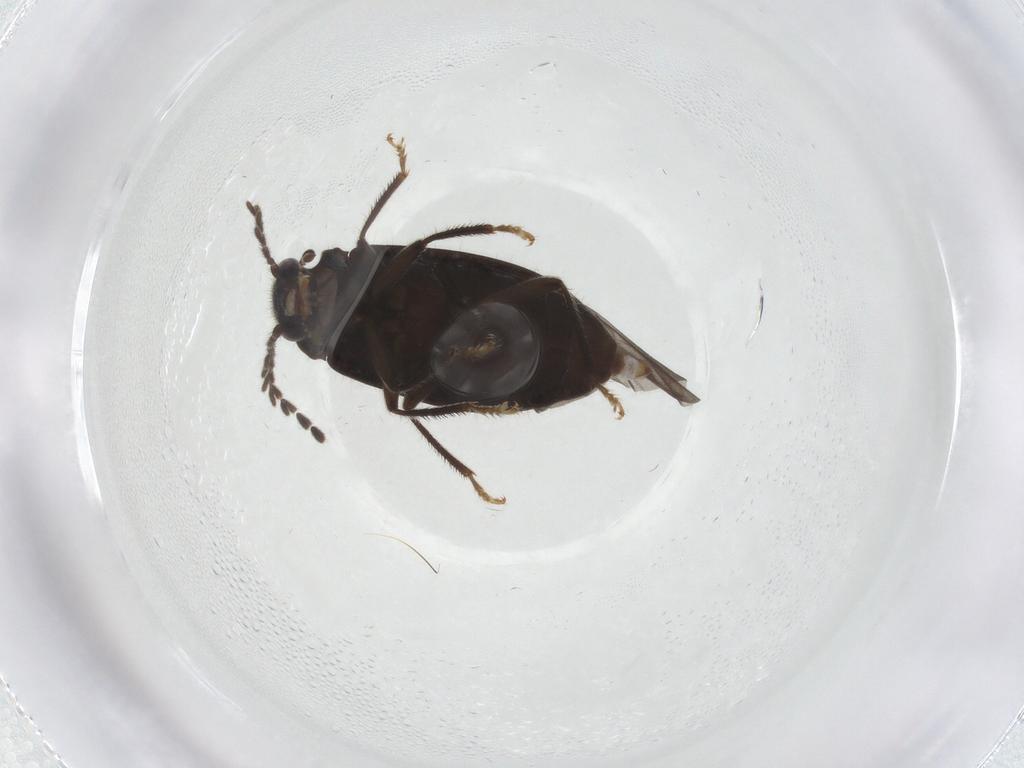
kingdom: Animalia
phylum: Arthropoda
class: Insecta
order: Coleoptera
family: Ptilodactylidae
